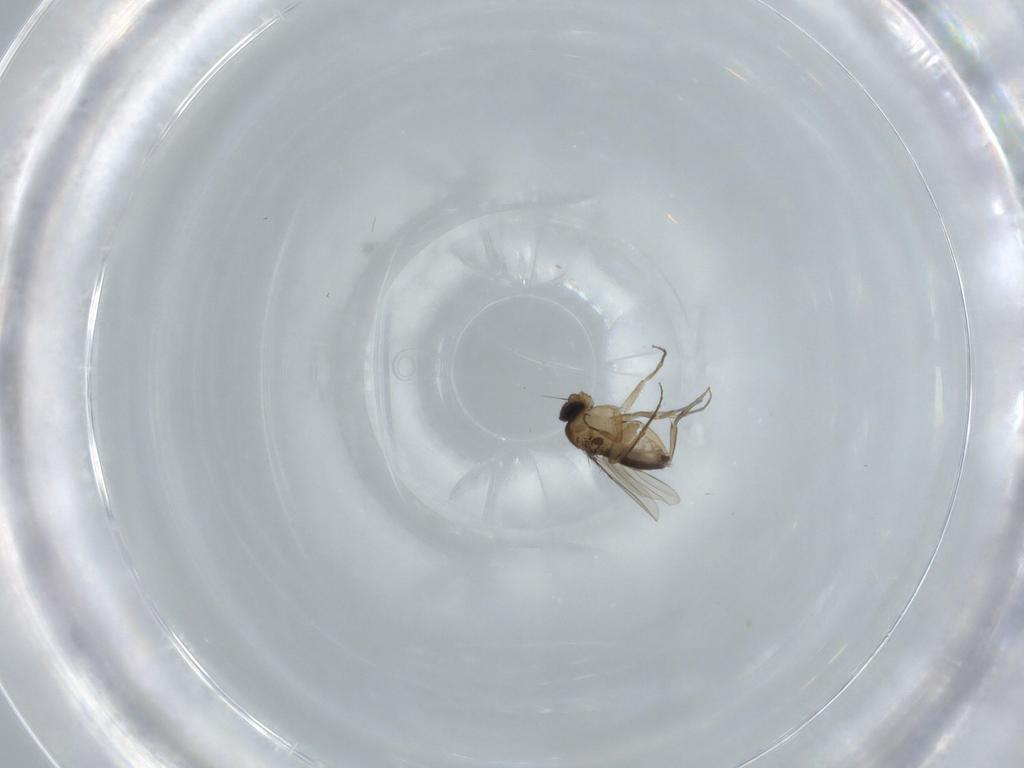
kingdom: Animalia
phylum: Arthropoda
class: Insecta
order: Diptera
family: Phoridae
